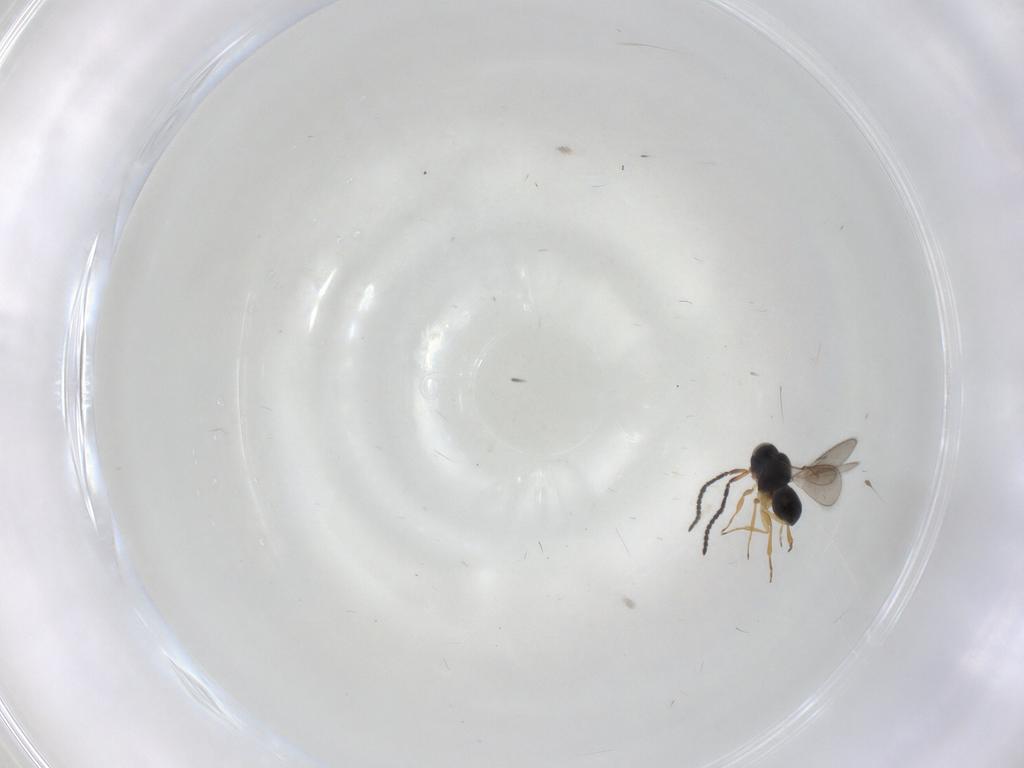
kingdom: Animalia
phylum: Arthropoda
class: Insecta
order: Hymenoptera
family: Scelionidae
